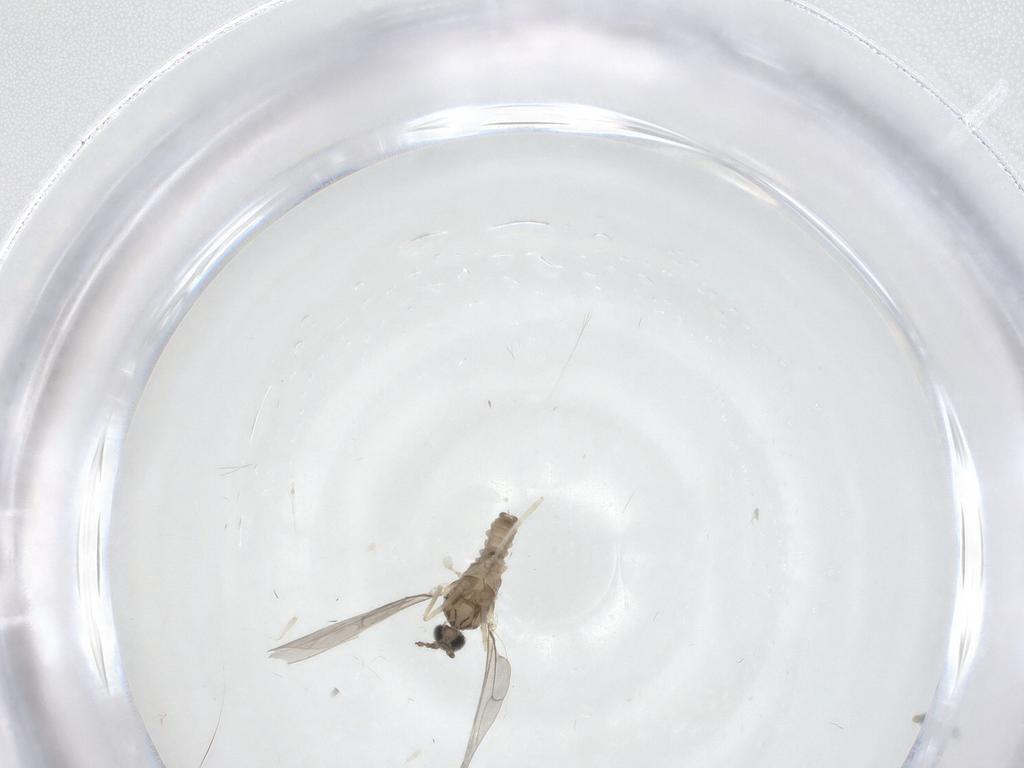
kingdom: Animalia
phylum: Arthropoda
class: Insecta
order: Diptera
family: Cecidomyiidae
